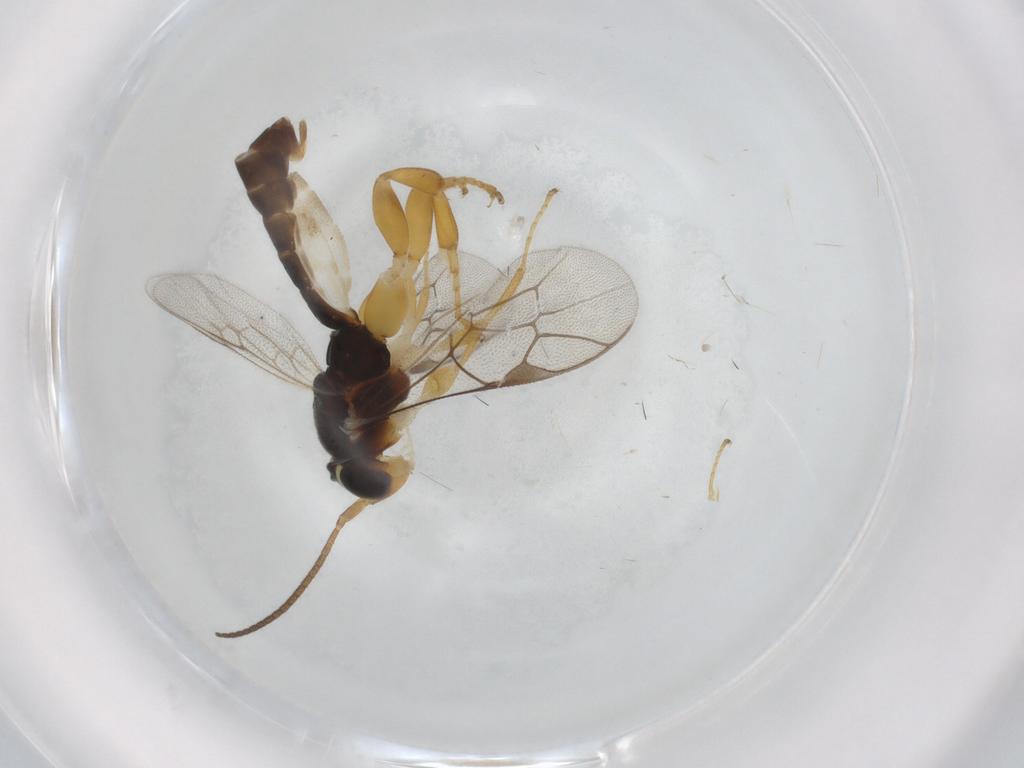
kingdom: Animalia
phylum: Arthropoda
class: Insecta
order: Hymenoptera
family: Ichneumonidae
